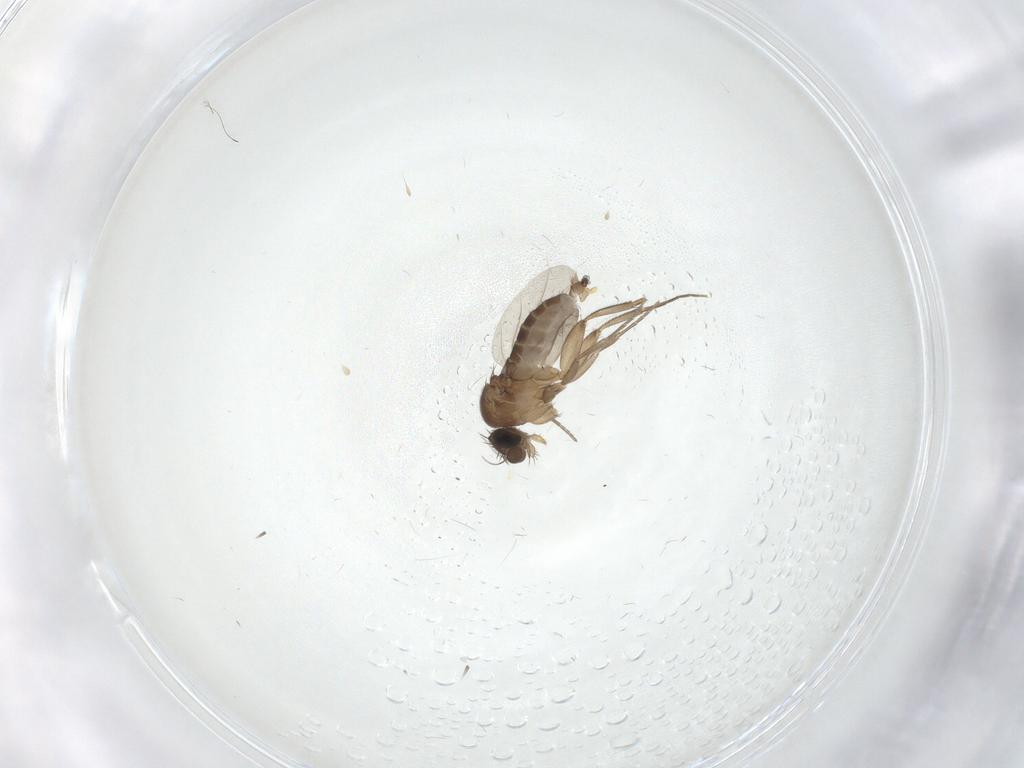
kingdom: Animalia
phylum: Arthropoda
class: Insecta
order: Diptera
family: Phoridae
